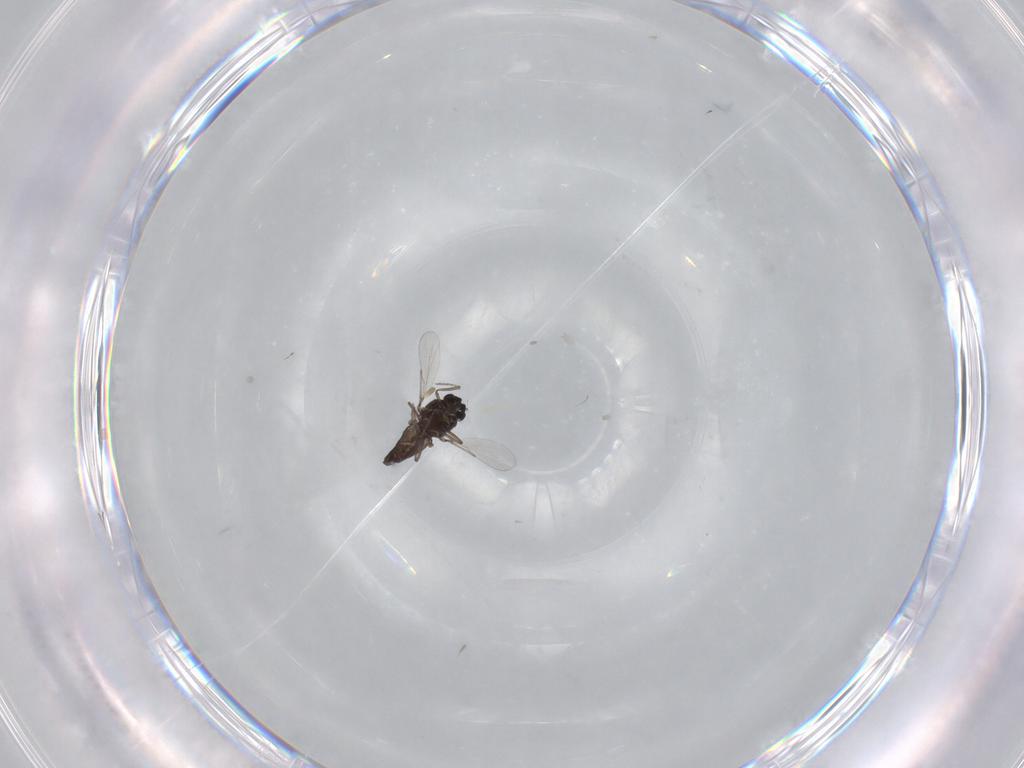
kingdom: Animalia
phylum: Arthropoda
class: Insecta
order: Diptera
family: Ceratopogonidae
